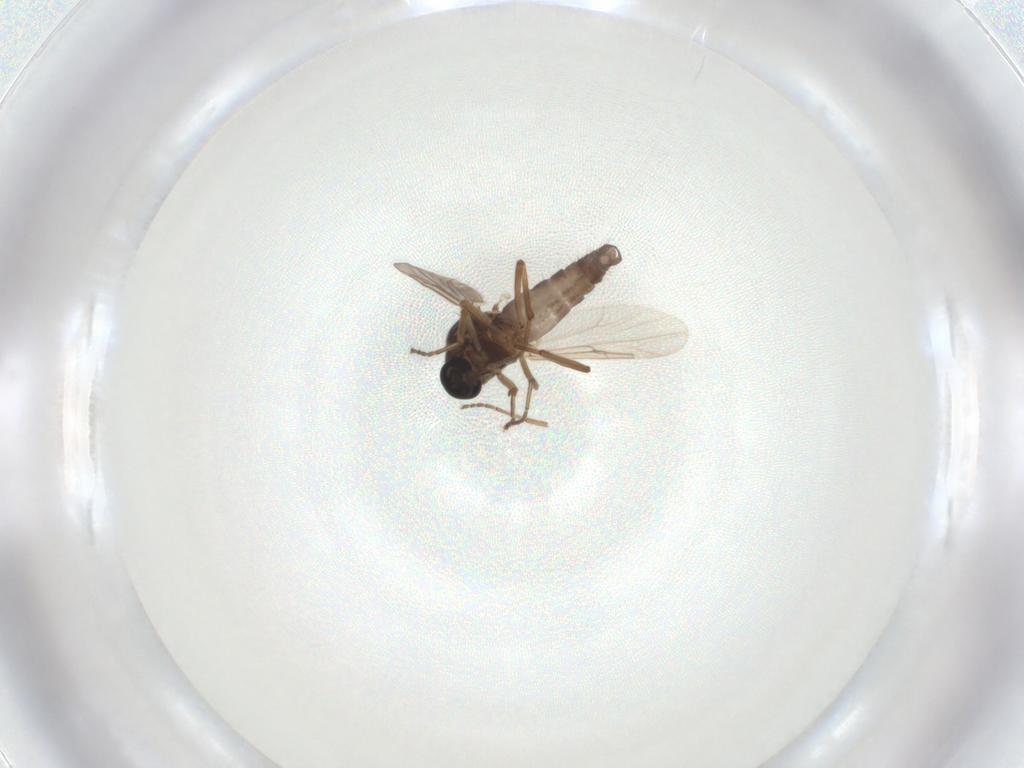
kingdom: Animalia
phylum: Arthropoda
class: Insecta
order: Diptera
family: Ceratopogonidae
